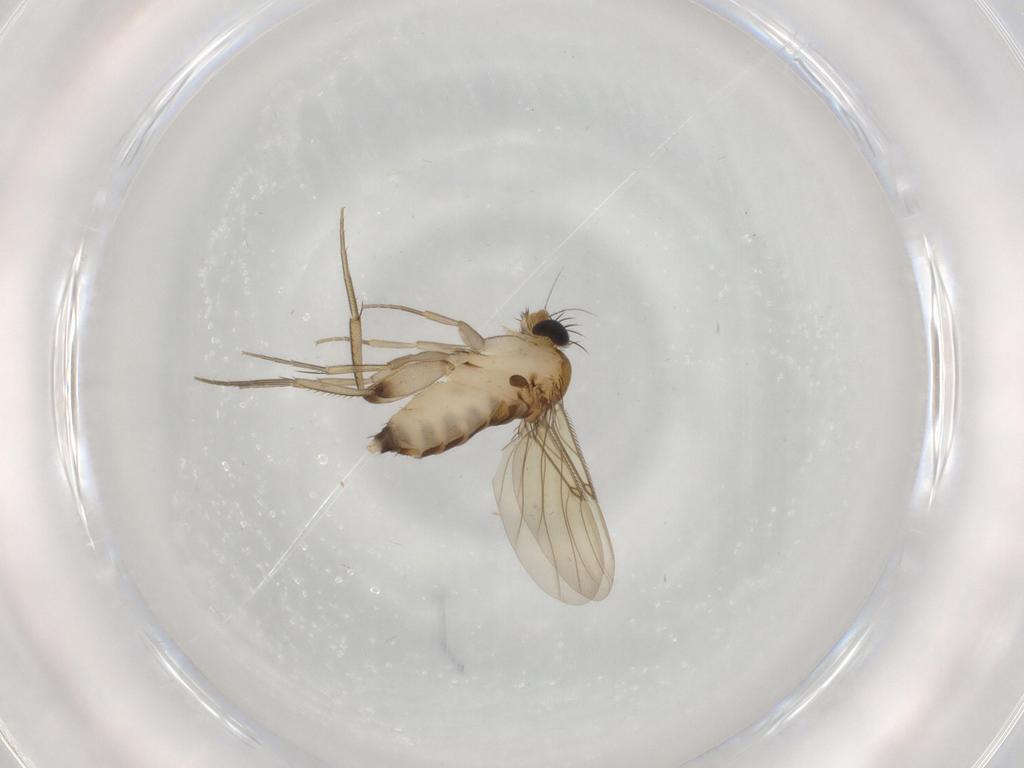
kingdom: Animalia
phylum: Arthropoda
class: Insecta
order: Diptera
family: Phoridae
